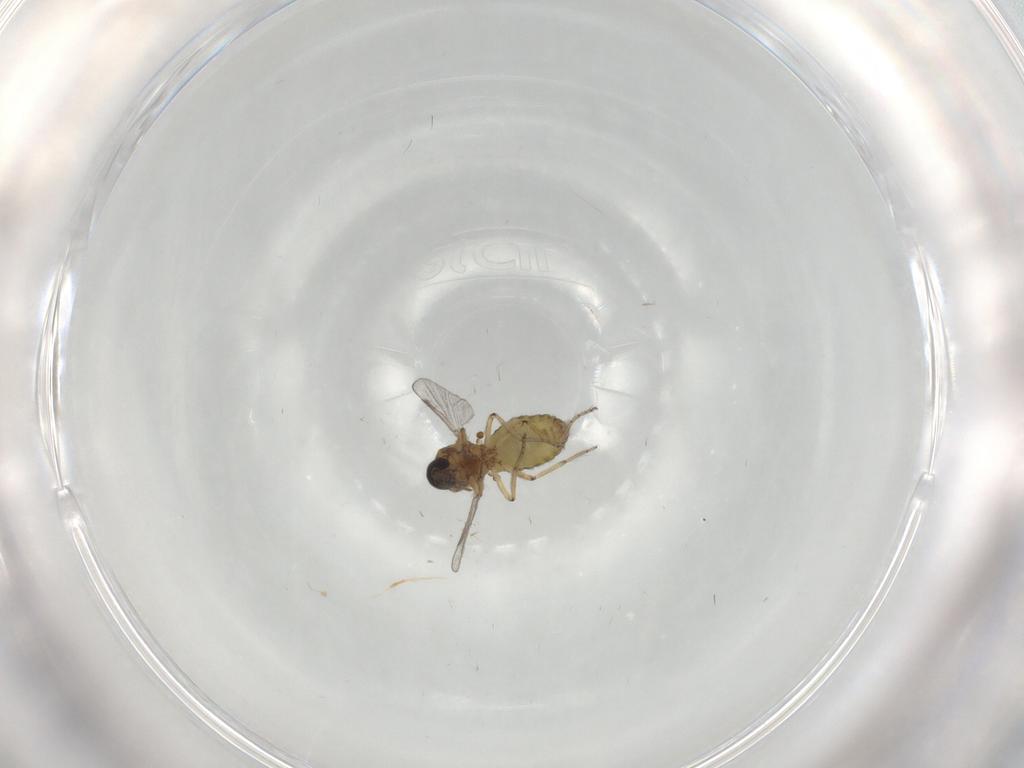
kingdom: Animalia
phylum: Arthropoda
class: Insecta
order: Diptera
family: Ceratopogonidae
